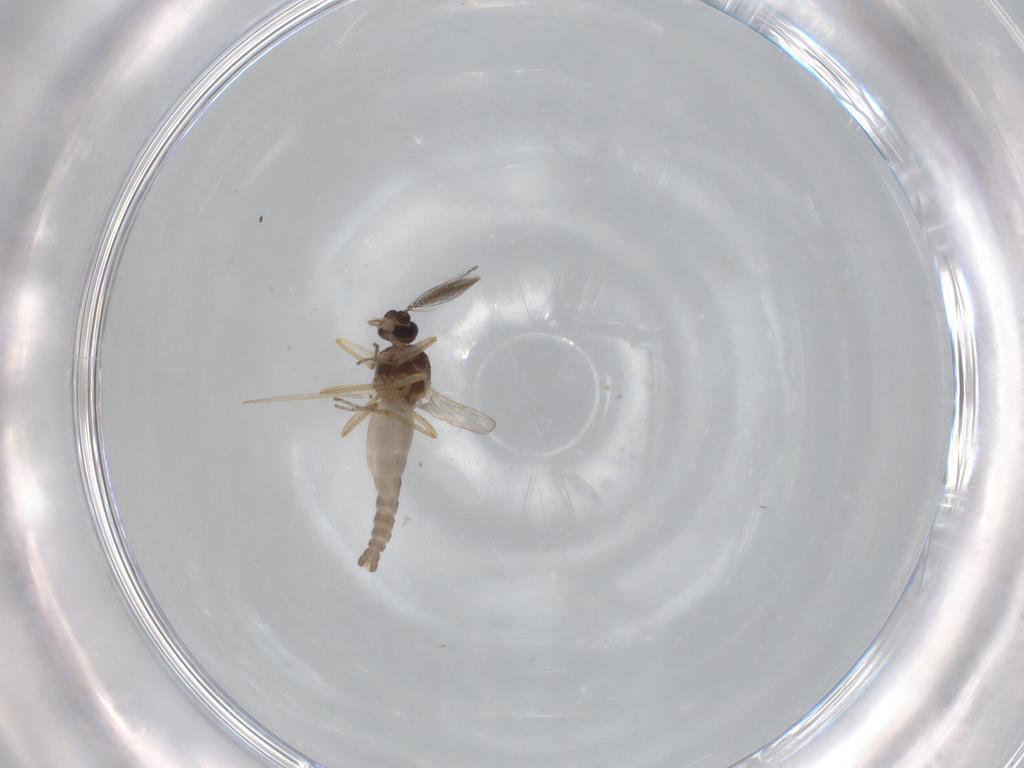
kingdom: Animalia
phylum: Arthropoda
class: Insecta
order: Diptera
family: Ceratopogonidae
